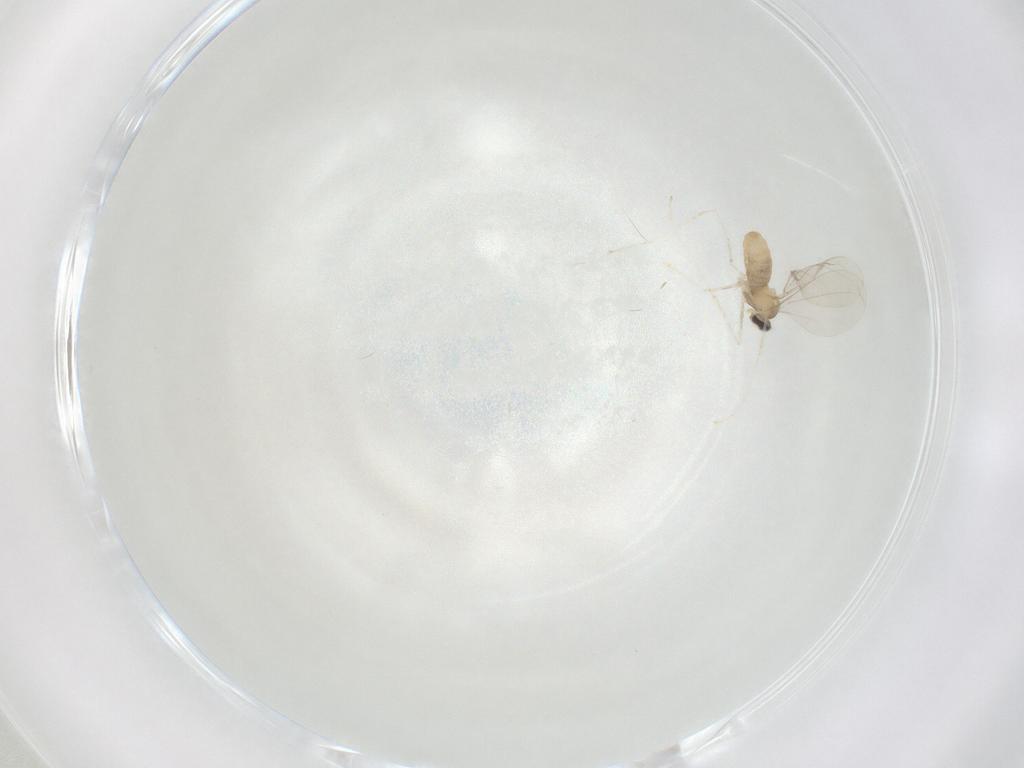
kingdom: Animalia
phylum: Arthropoda
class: Insecta
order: Diptera
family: Cecidomyiidae
